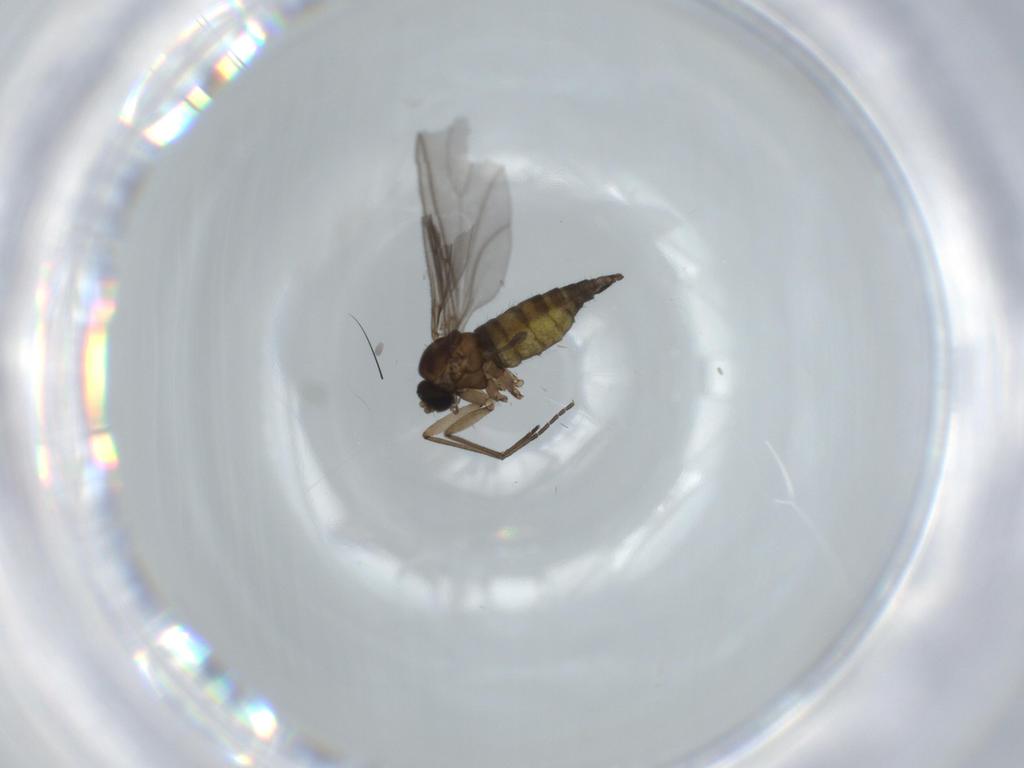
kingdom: Animalia
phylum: Arthropoda
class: Insecta
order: Diptera
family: Sciaridae
